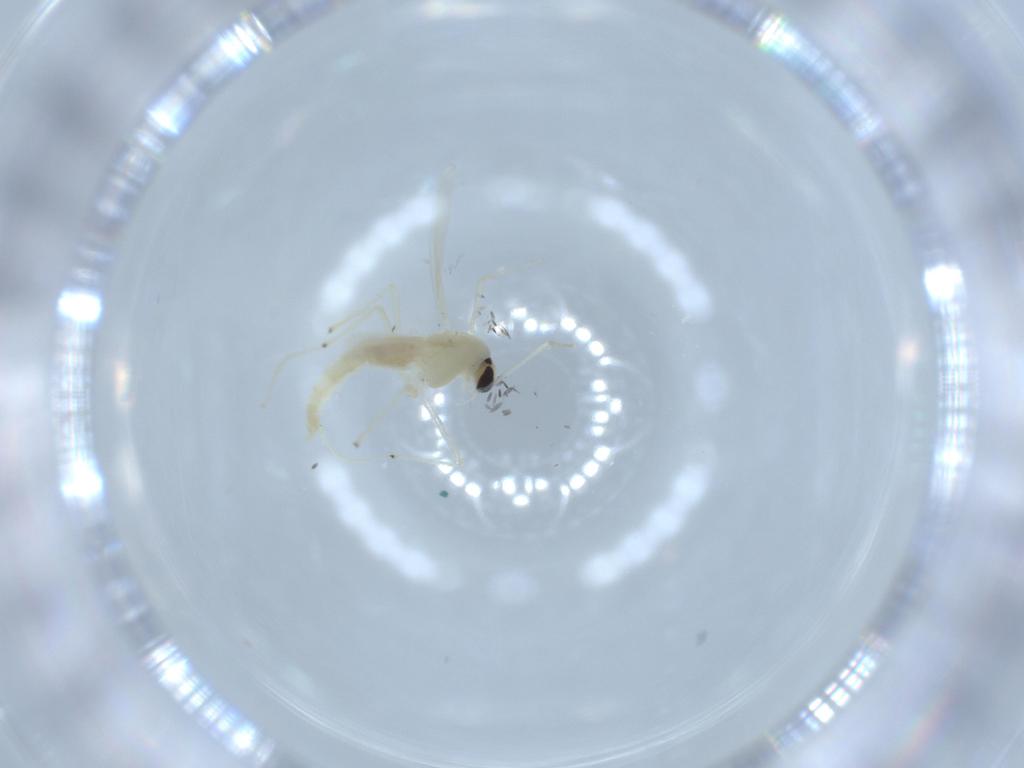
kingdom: Animalia
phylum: Arthropoda
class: Insecta
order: Diptera
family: Chironomidae
